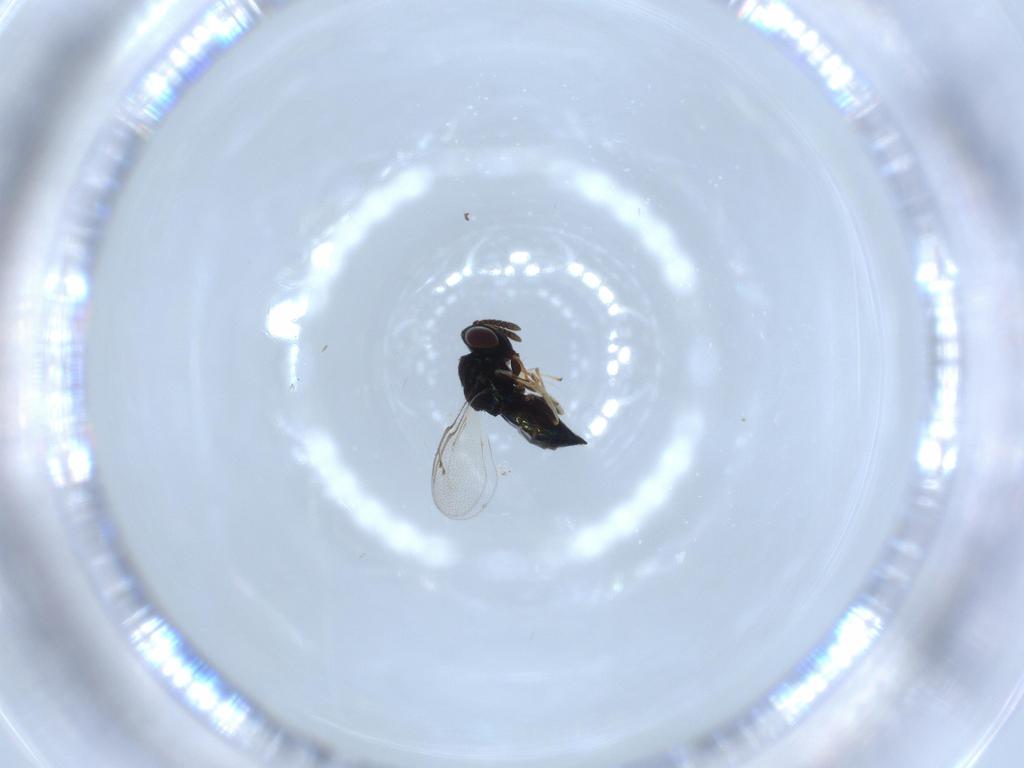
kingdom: Animalia
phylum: Arthropoda
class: Insecta
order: Hymenoptera
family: Pteromalidae
